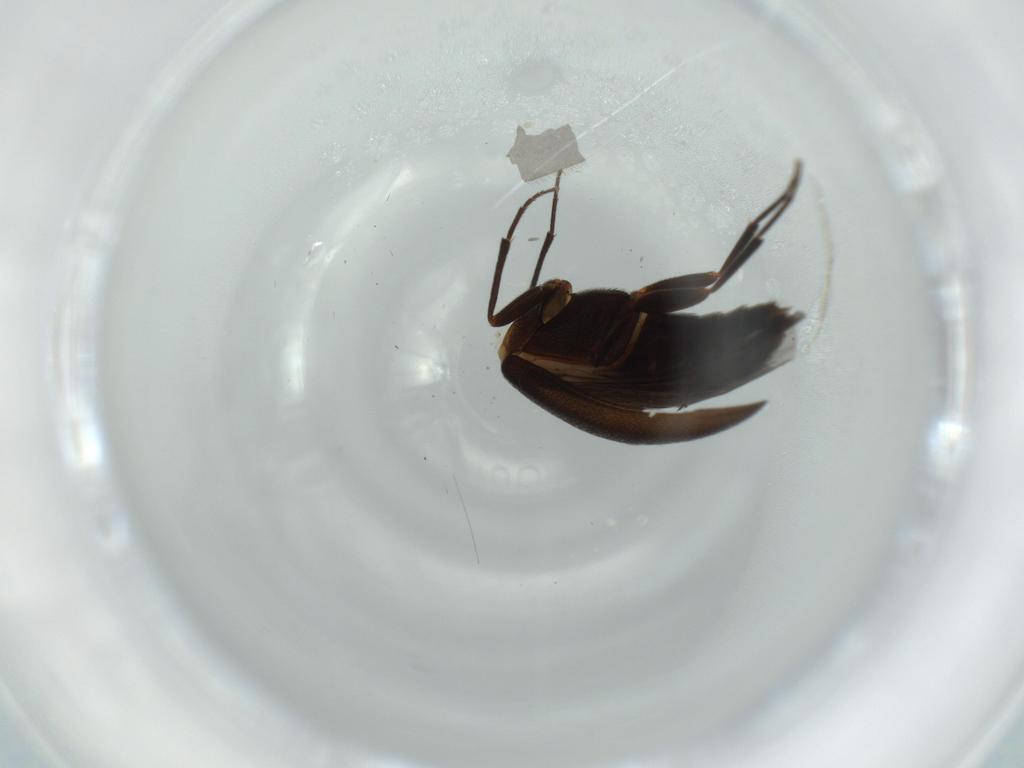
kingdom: Animalia
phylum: Arthropoda
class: Insecta
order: Coleoptera
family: Melandryidae
